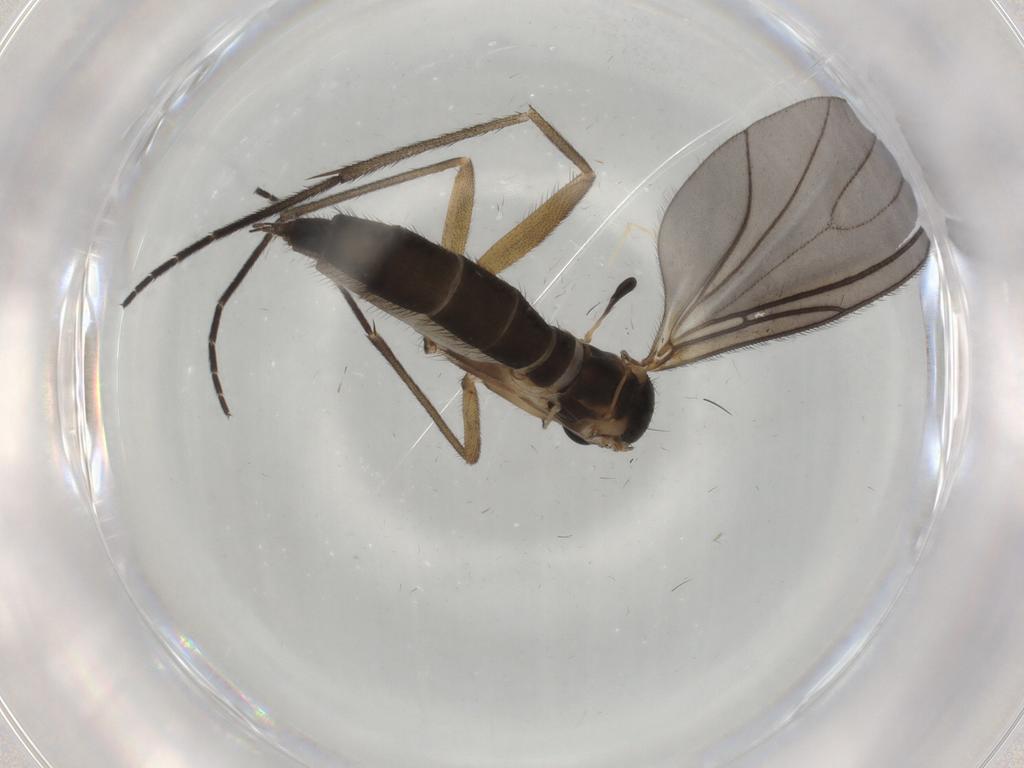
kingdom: Animalia
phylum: Arthropoda
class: Insecta
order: Diptera
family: Sciaridae
